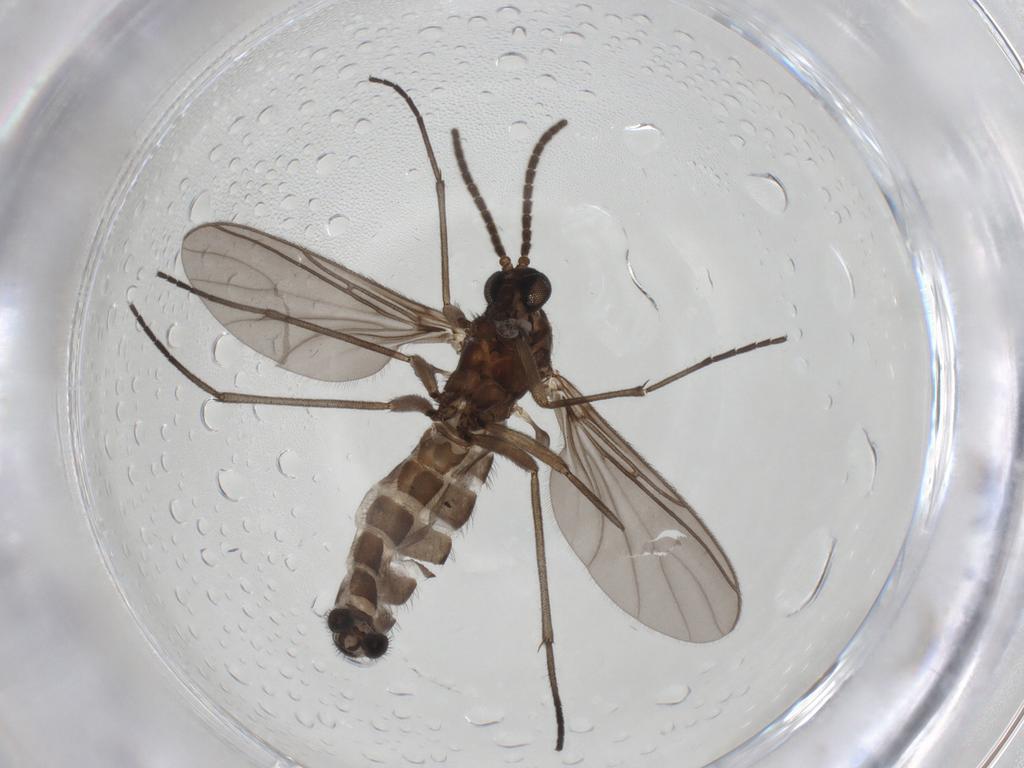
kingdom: Animalia
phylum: Arthropoda
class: Insecta
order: Diptera
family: Sciaridae
